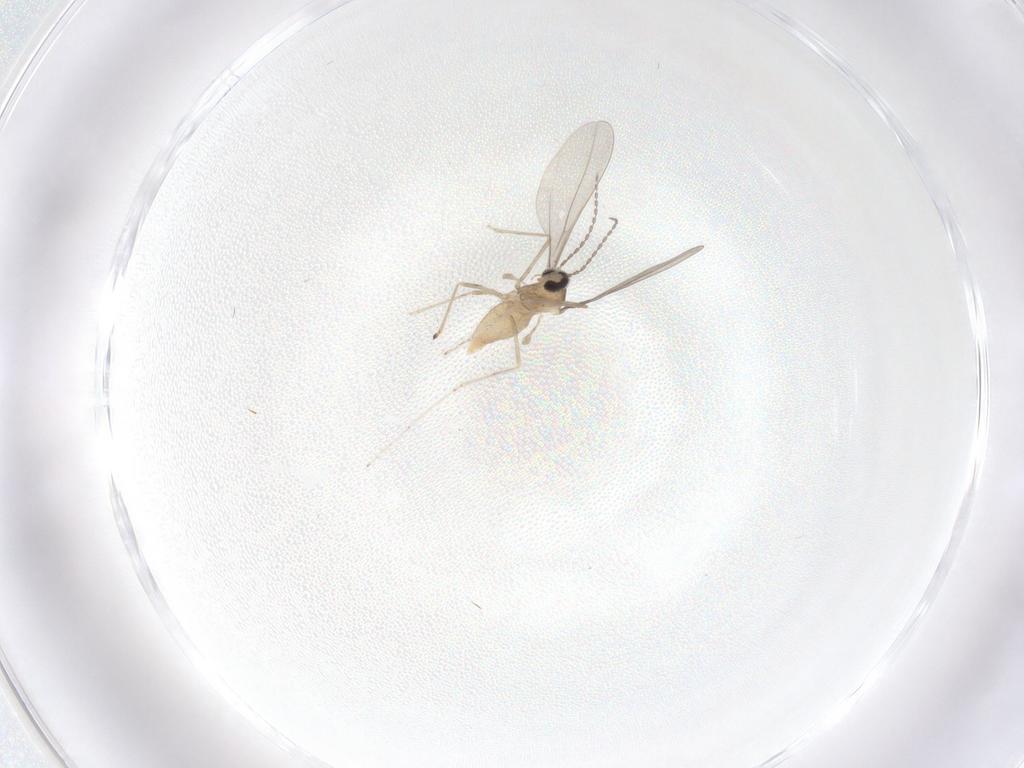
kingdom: Animalia
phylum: Arthropoda
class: Insecta
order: Diptera
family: Cecidomyiidae
